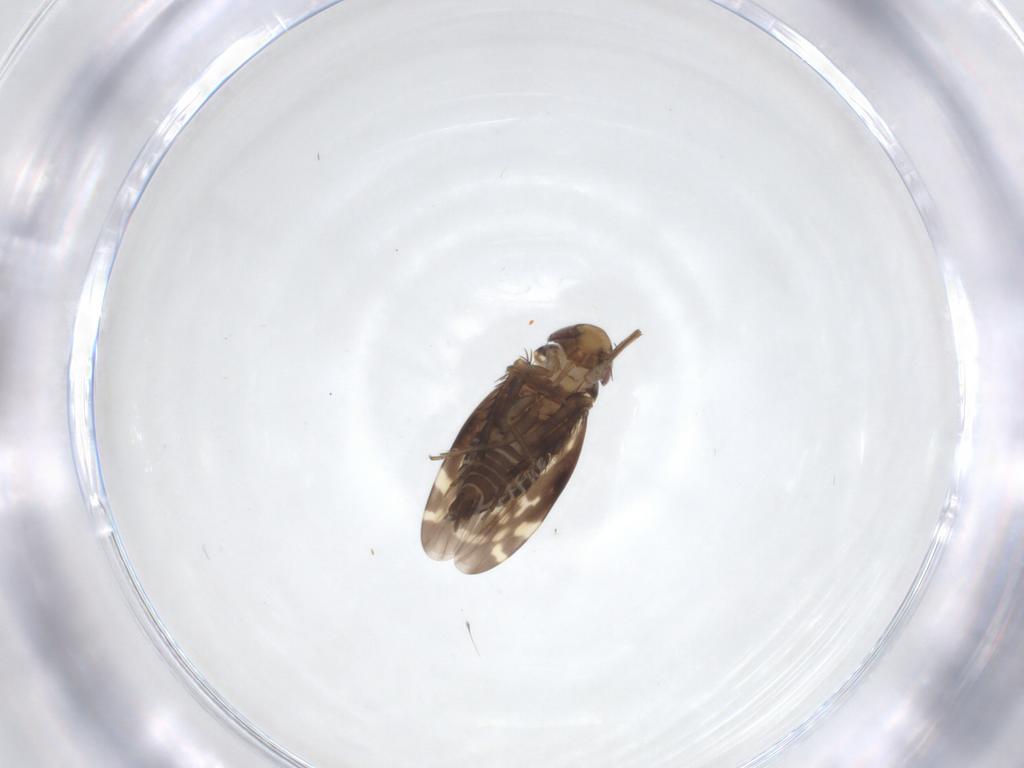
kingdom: Animalia
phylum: Arthropoda
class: Insecta
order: Hemiptera
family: Cicadellidae
